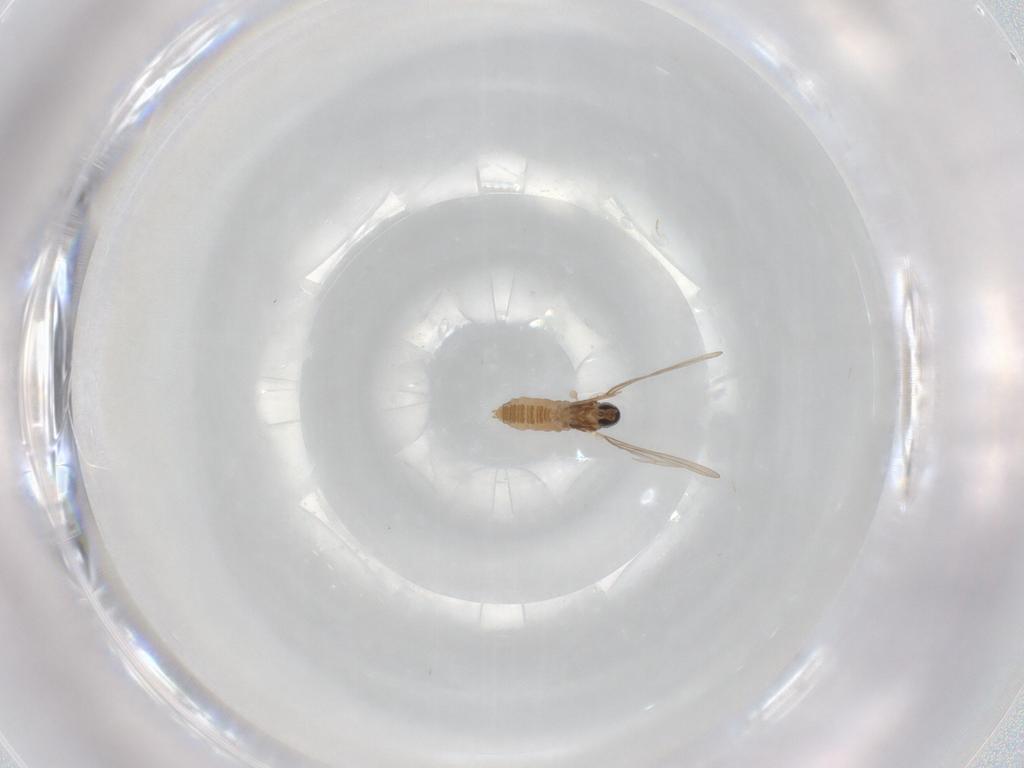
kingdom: Animalia
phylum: Arthropoda
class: Insecta
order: Diptera
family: Cecidomyiidae
